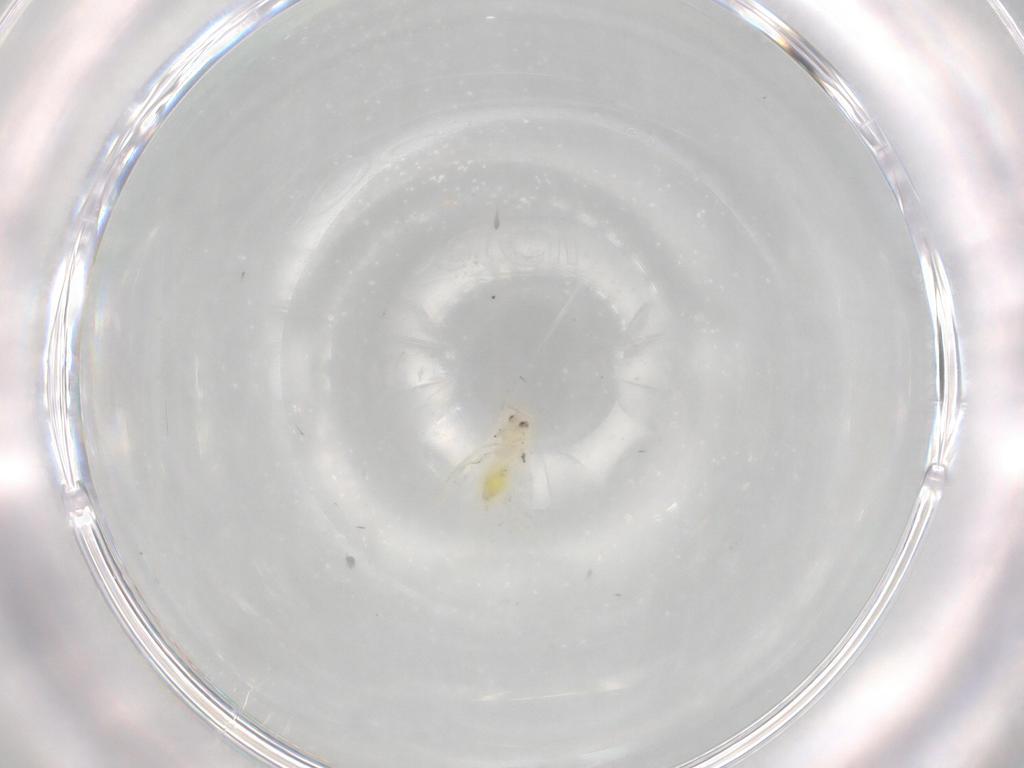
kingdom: Animalia
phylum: Arthropoda
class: Insecta
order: Hemiptera
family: Aleyrodidae
